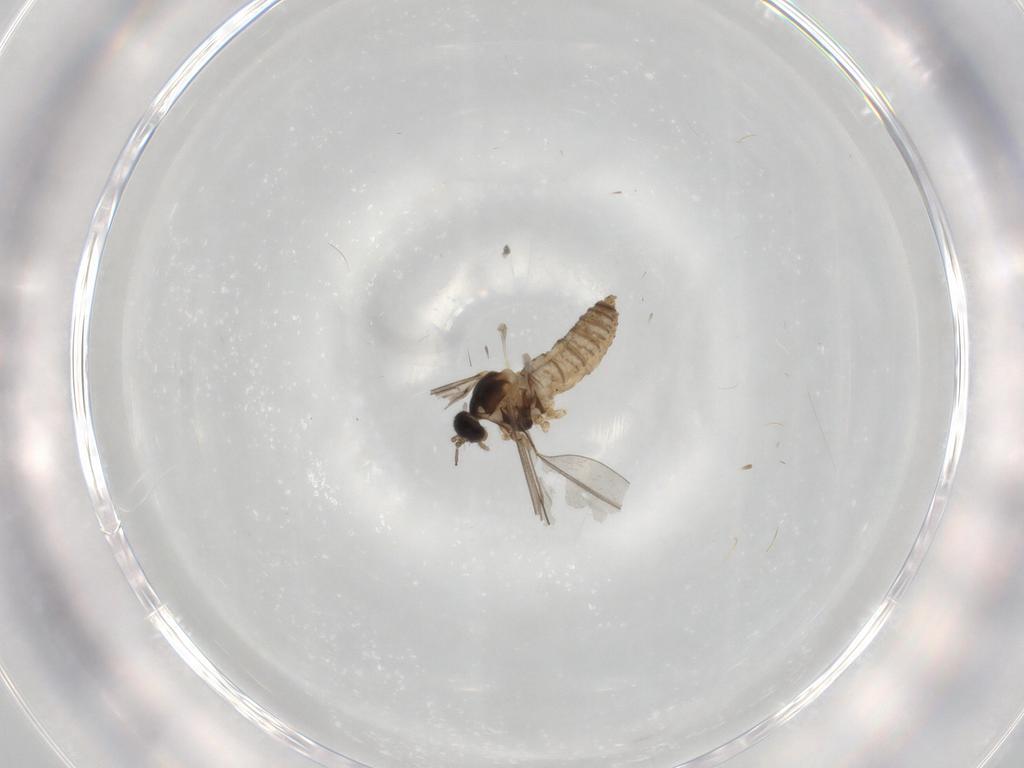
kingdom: Animalia
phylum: Arthropoda
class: Insecta
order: Diptera
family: Cecidomyiidae
